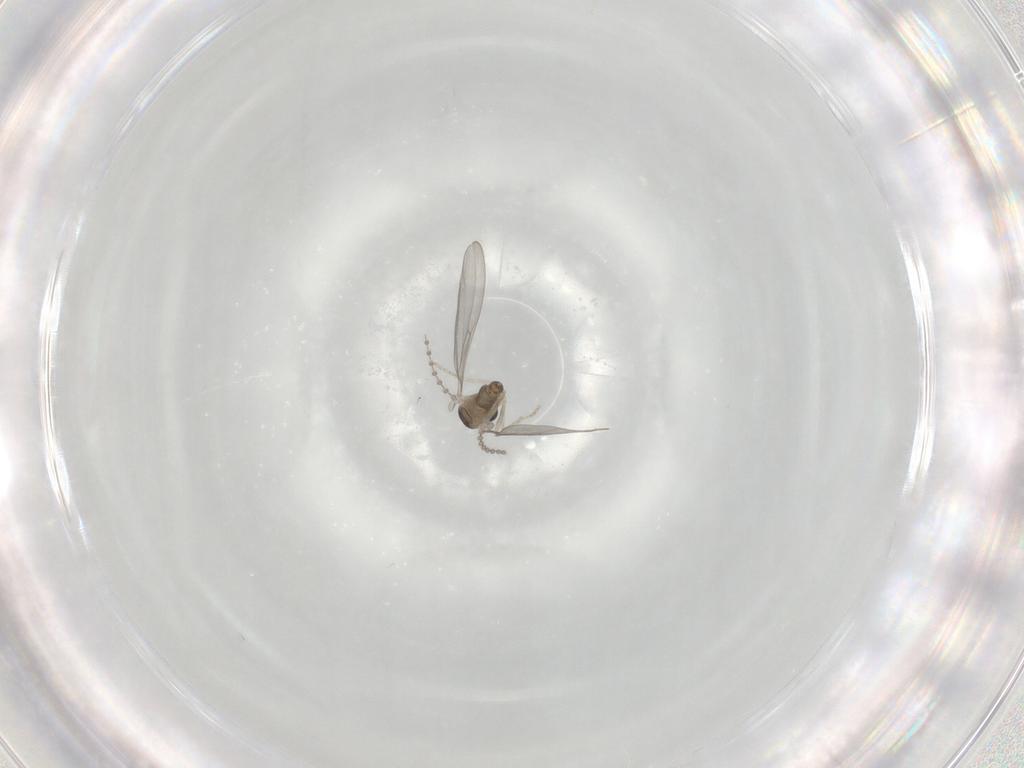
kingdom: Animalia
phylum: Arthropoda
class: Insecta
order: Diptera
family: Cecidomyiidae
